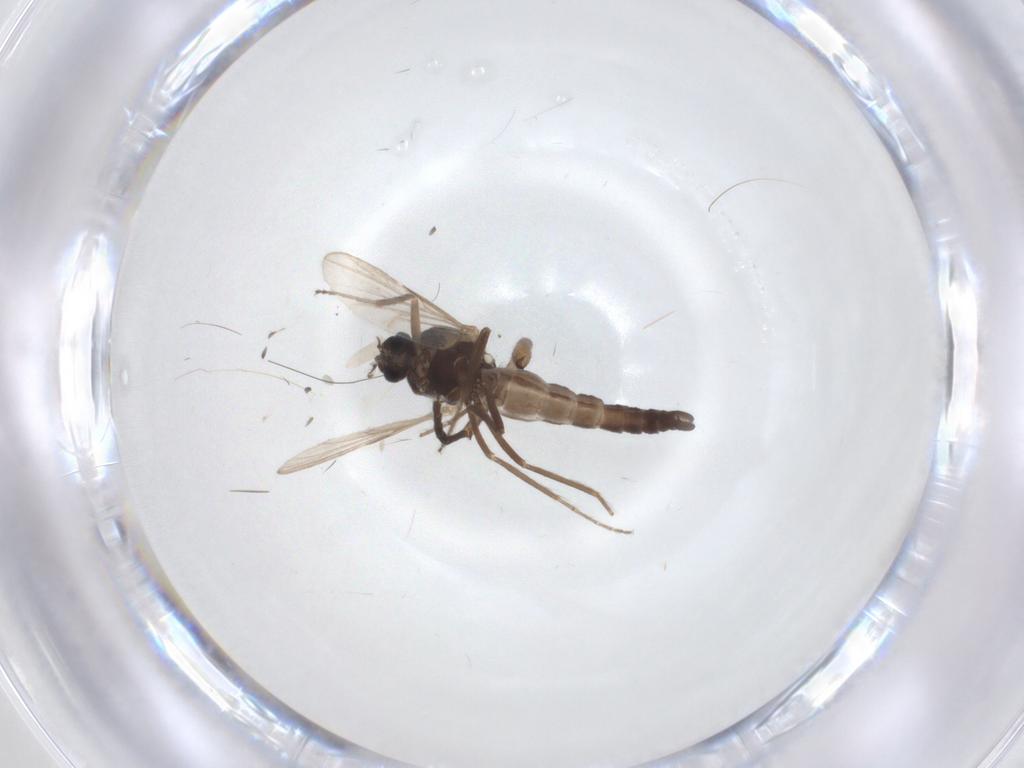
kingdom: Animalia
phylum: Arthropoda
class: Insecta
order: Diptera
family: Ceratopogonidae
